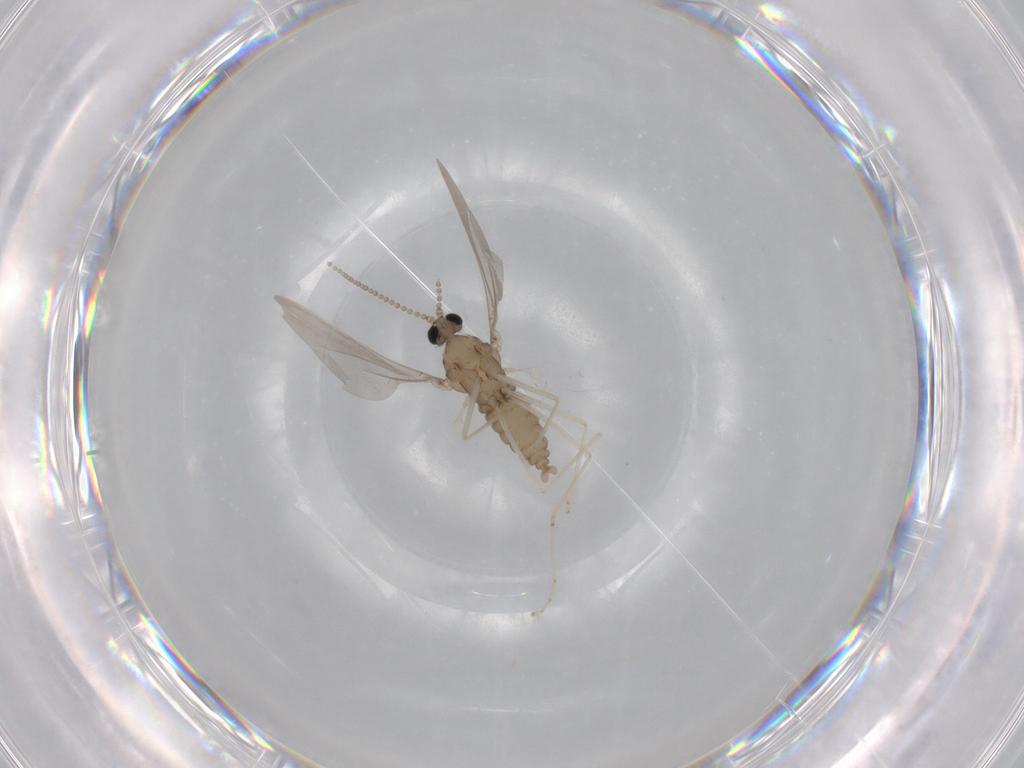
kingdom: Animalia
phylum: Arthropoda
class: Insecta
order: Diptera
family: Cecidomyiidae
